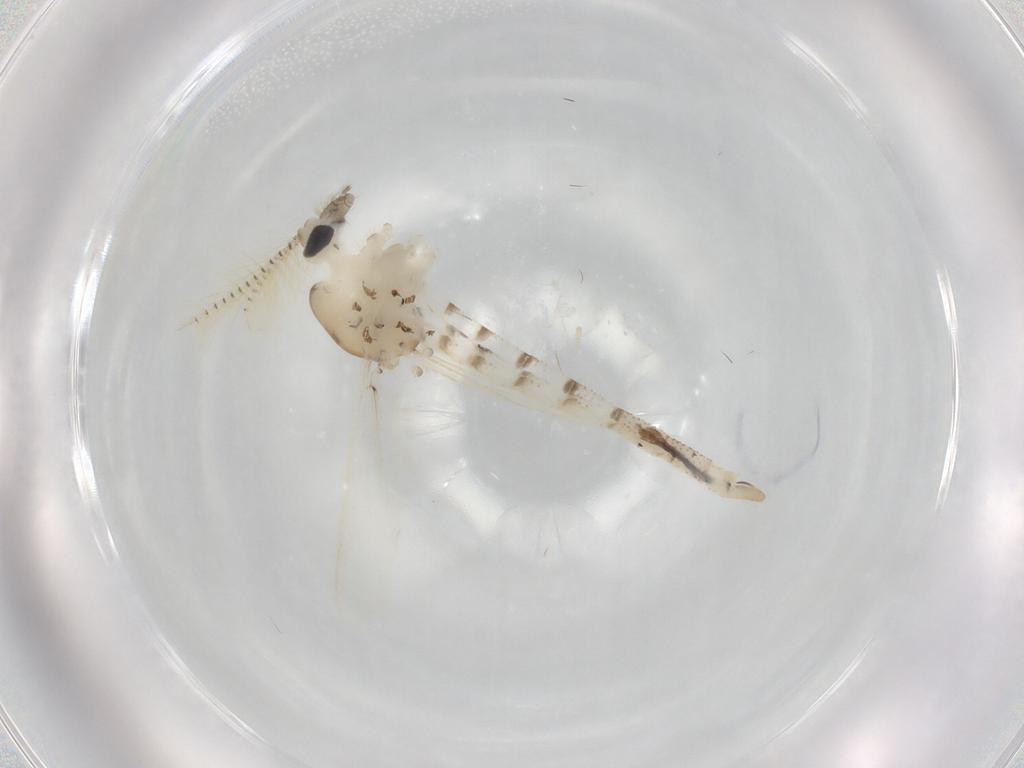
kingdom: Animalia
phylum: Arthropoda
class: Insecta
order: Diptera
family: Chaoboridae
